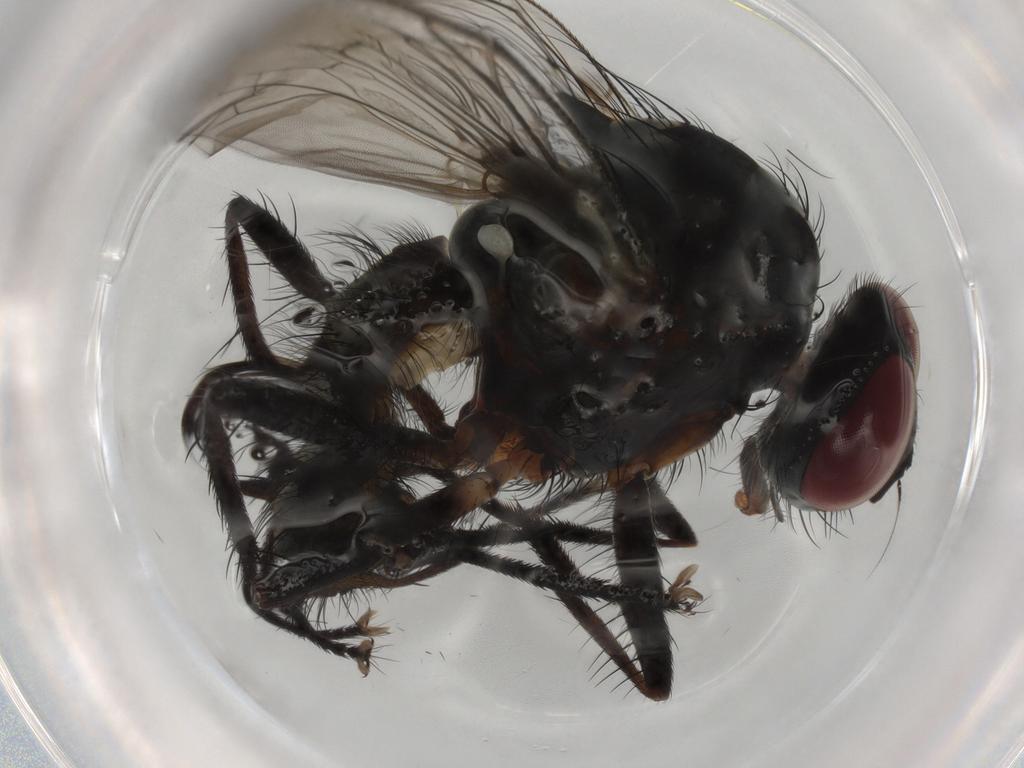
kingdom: Animalia
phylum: Arthropoda
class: Insecta
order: Diptera
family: Anthomyiidae
